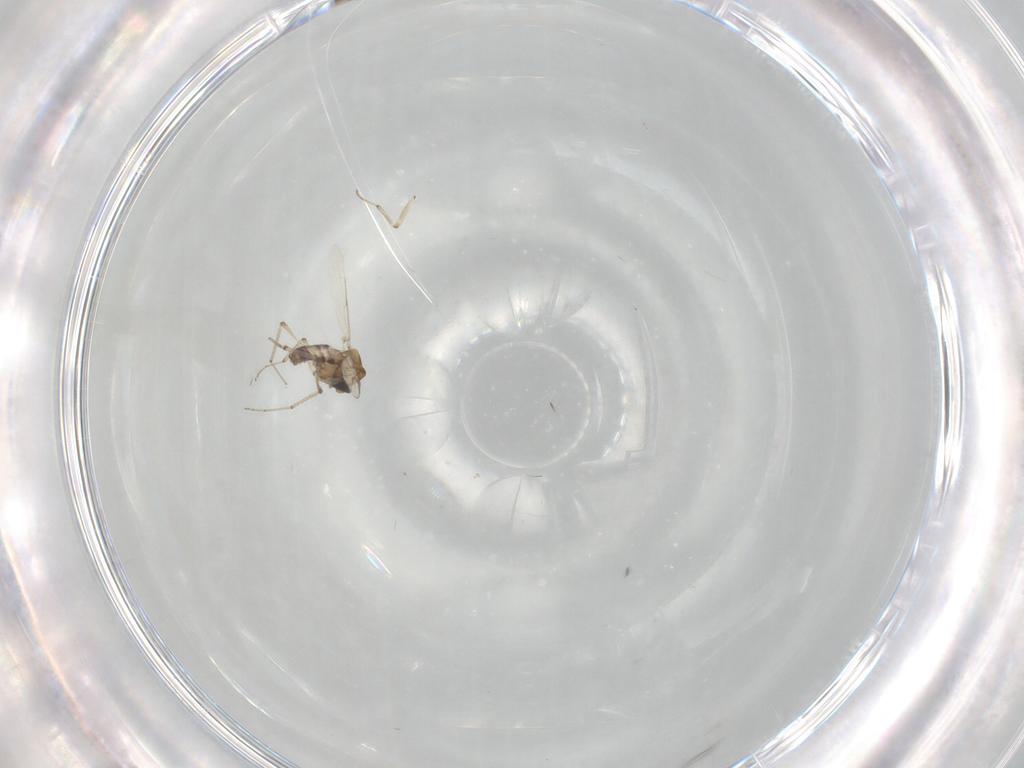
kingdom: Animalia
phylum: Arthropoda
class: Insecta
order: Diptera
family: Ceratopogonidae
